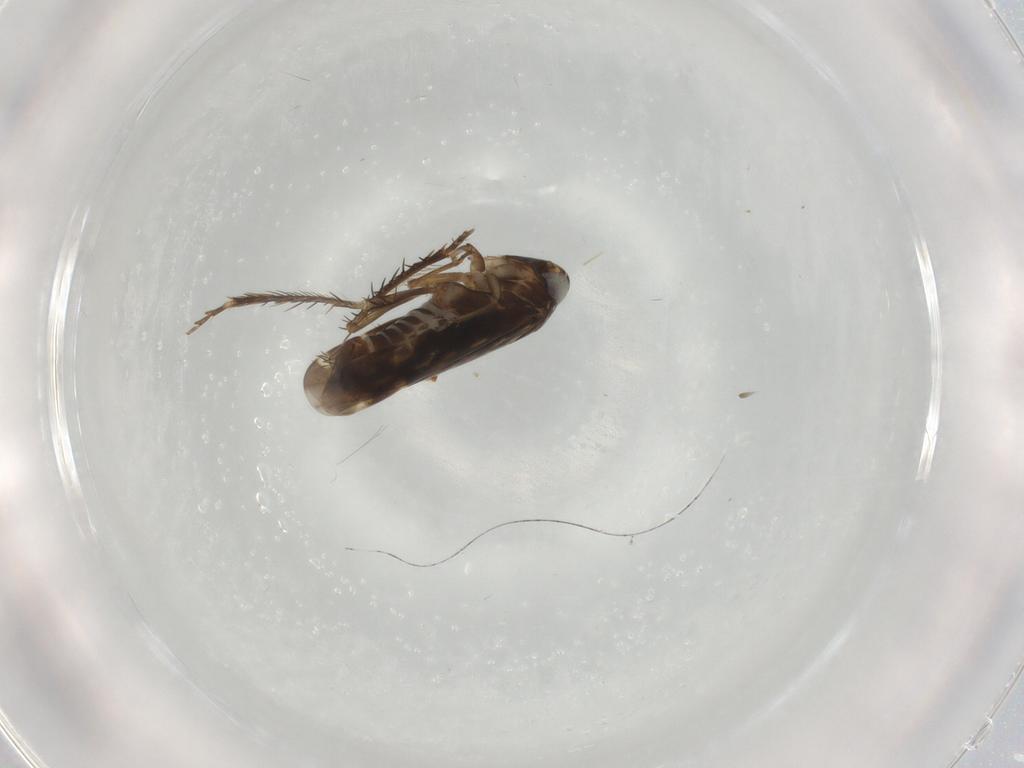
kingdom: Animalia
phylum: Arthropoda
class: Insecta
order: Hemiptera
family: Cicadellidae
